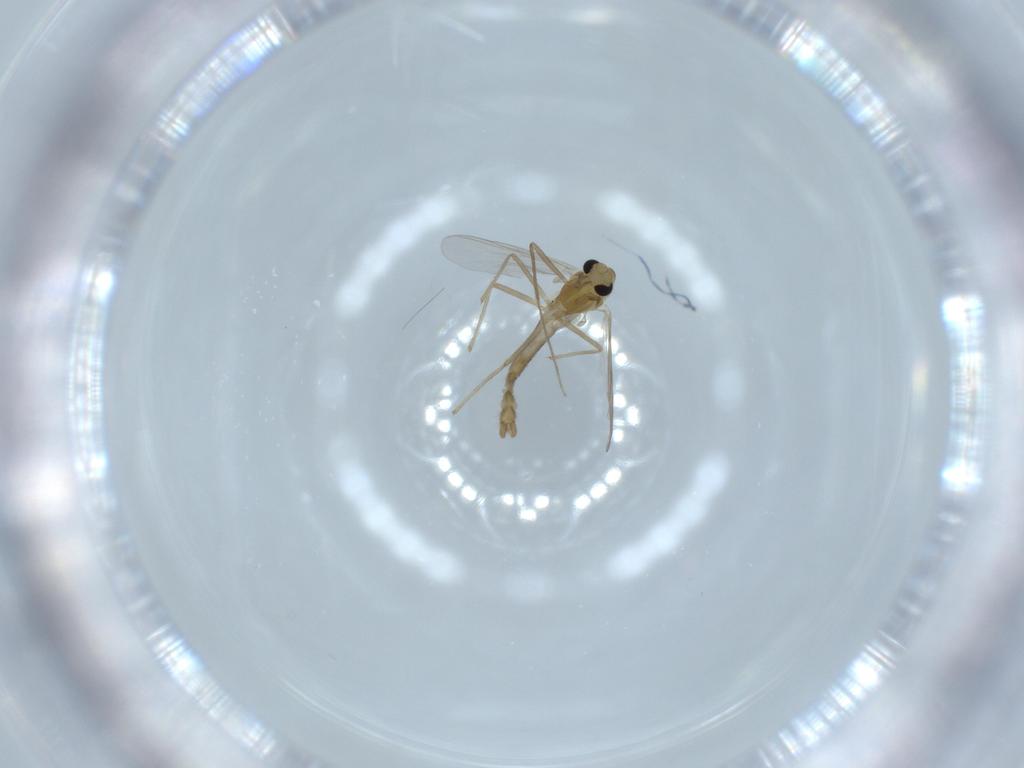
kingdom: Animalia
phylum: Arthropoda
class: Insecta
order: Diptera
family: Chironomidae
